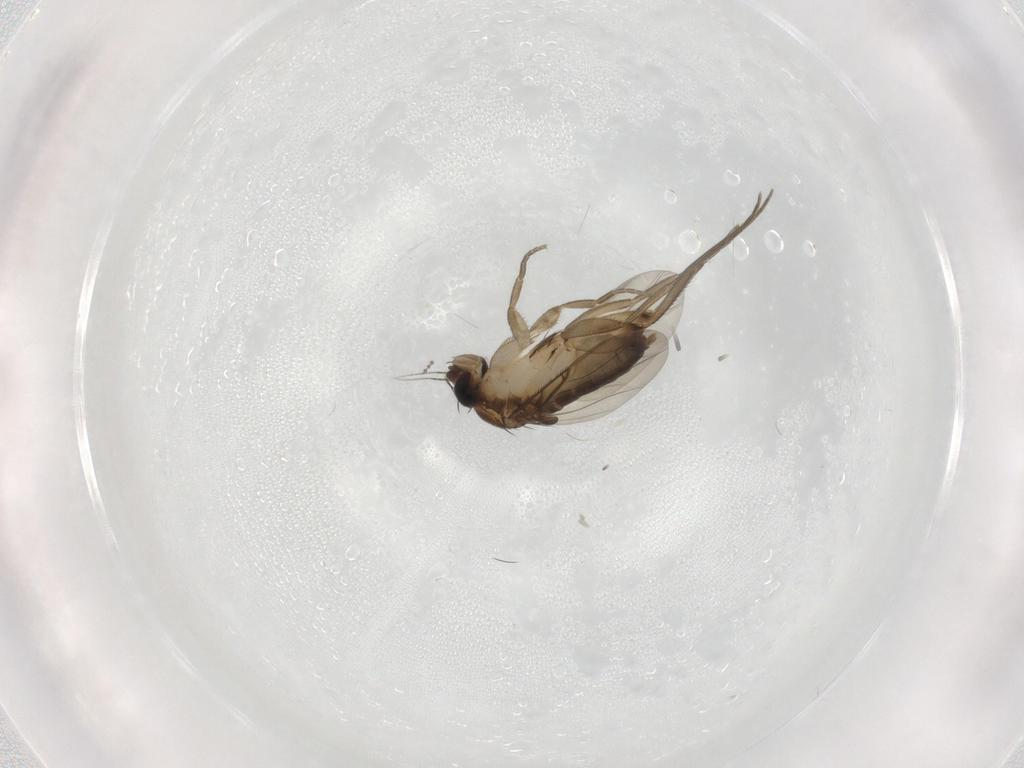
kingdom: Animalia
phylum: Arthropoda
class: Insecta
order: Diptera
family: Phoridae
